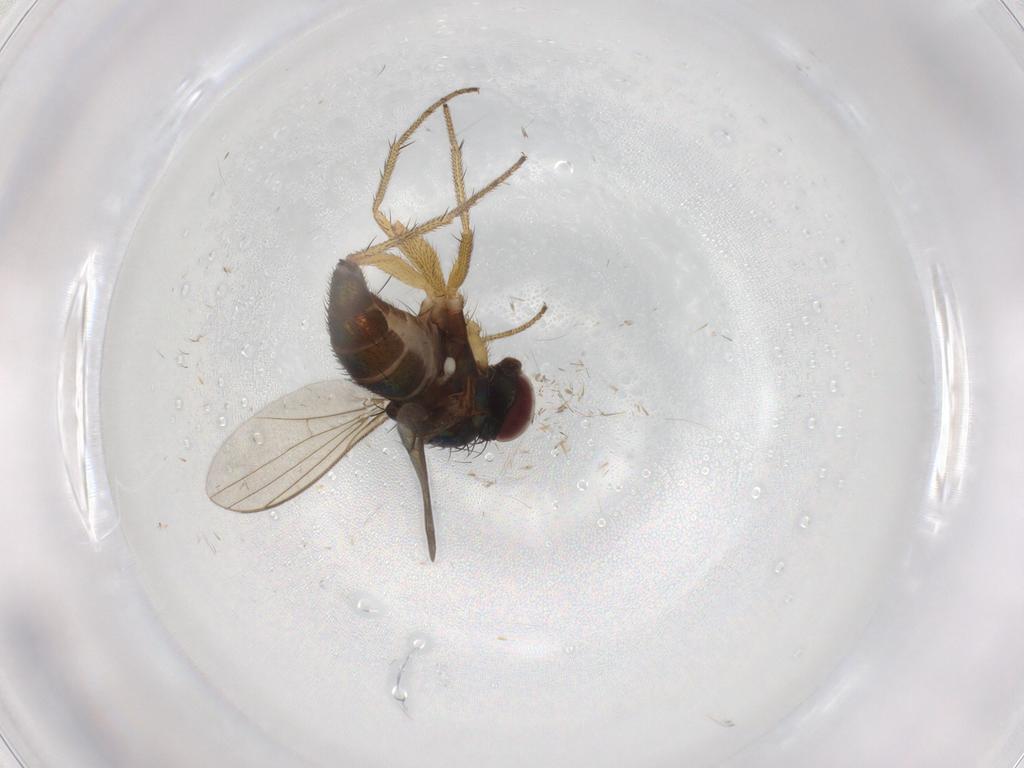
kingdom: Animalia
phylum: Arthropoda
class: Insecta
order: Diptera
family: Dolichopodidae
